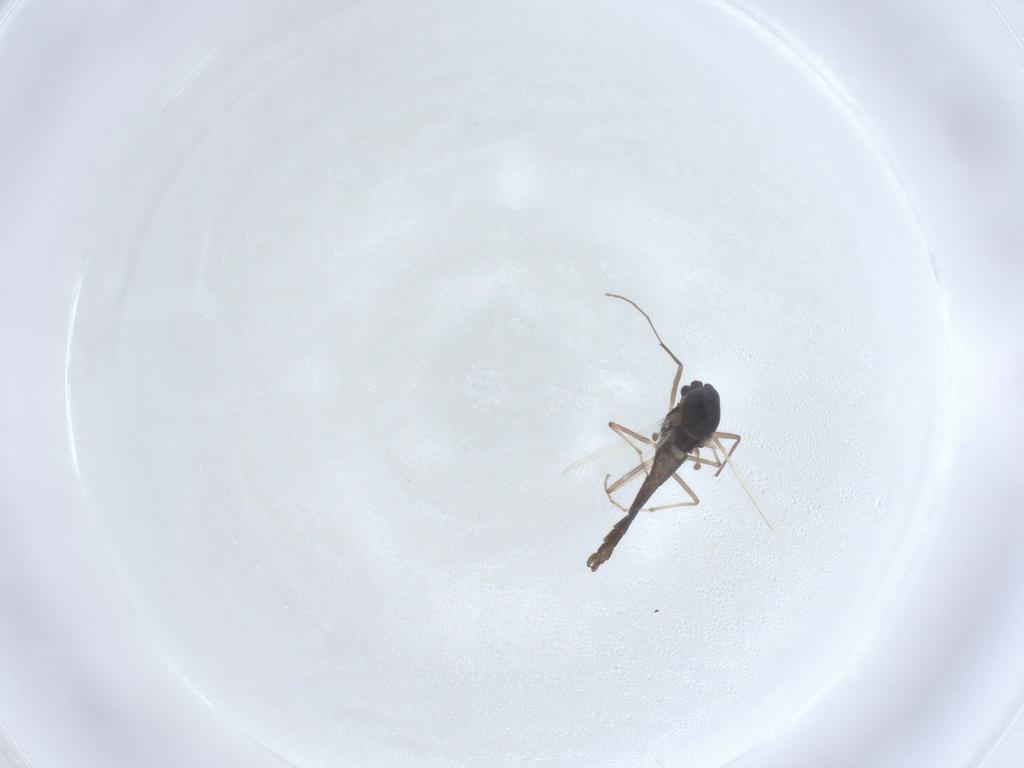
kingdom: Animalia
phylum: Arthropoda
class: Insecta
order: Diptera
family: Chironomidae
